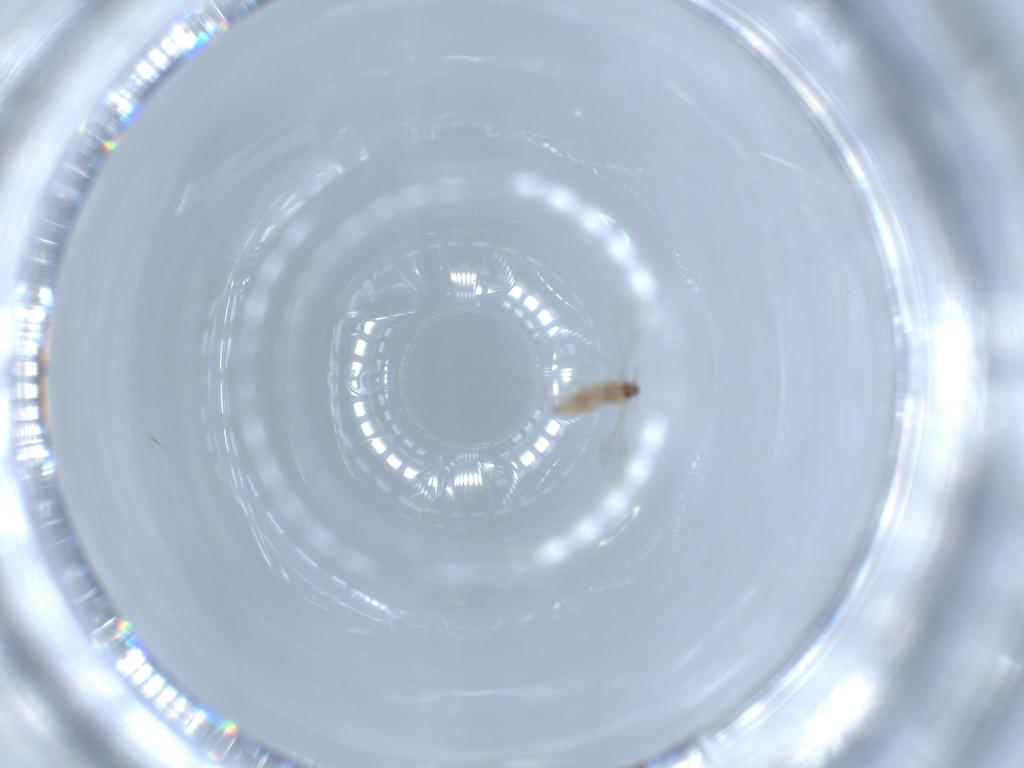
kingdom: Animalia
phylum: Arthropoda
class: Insecta
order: Diptera
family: Cecidomyiidae
